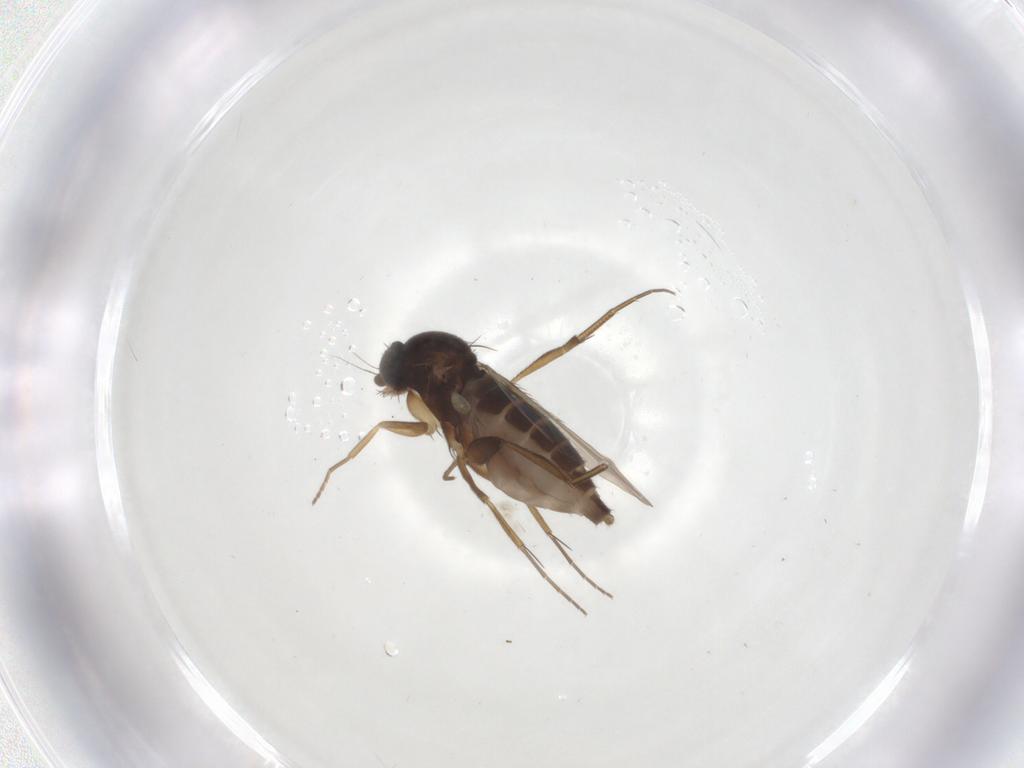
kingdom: Animalia
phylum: Arthropoda
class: Insecta
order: Diptera
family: Phoridae
